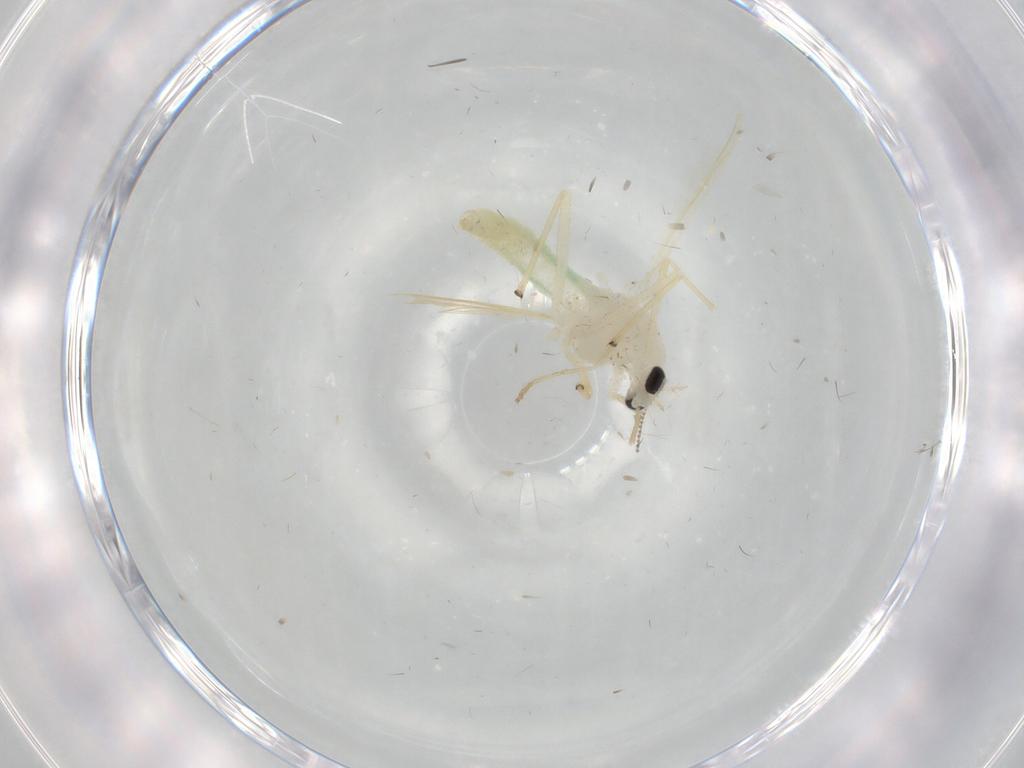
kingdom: Animalia
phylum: Arthropoda
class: Insecta
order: Diptera
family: Chironomidae
